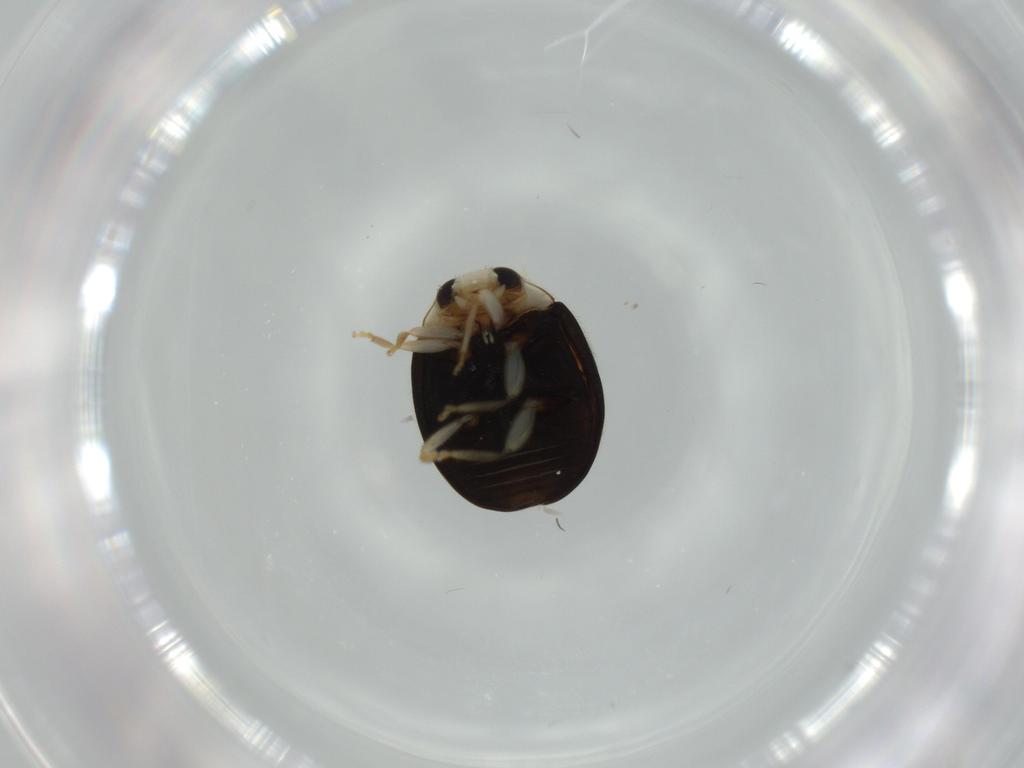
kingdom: Animalia
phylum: Arthropoda
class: Insecta
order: Coleoptera
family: Coccinellidae
